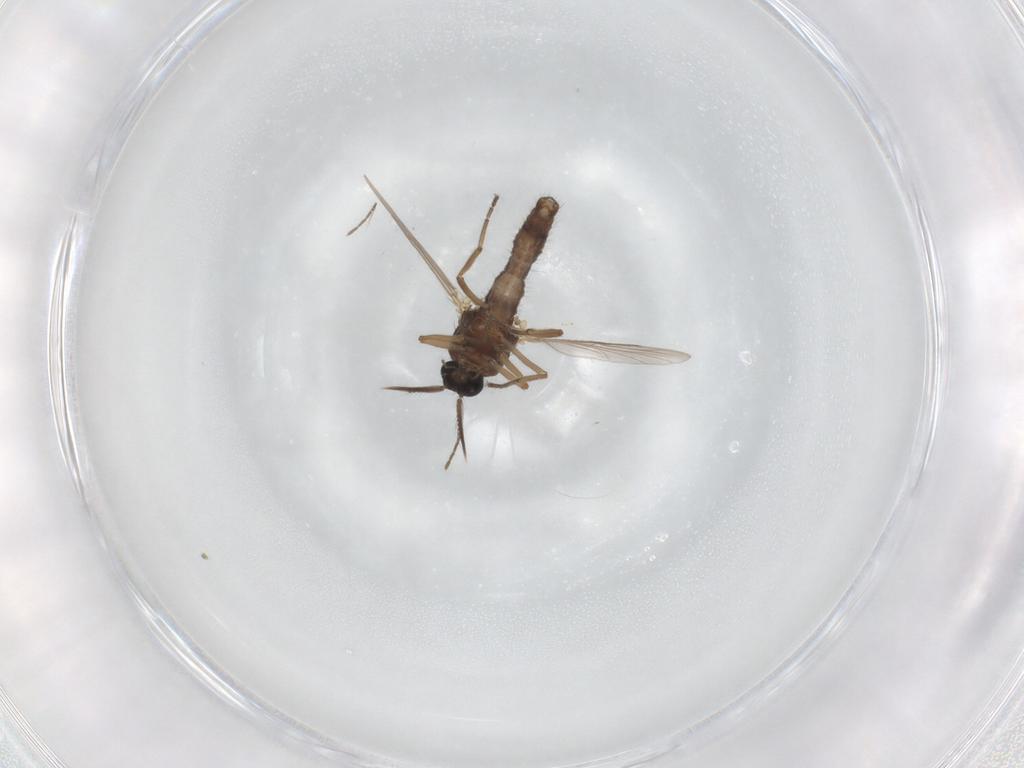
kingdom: Animalia
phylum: Arthropoda
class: Insecta
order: Diptera
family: Ceratopogonidae
